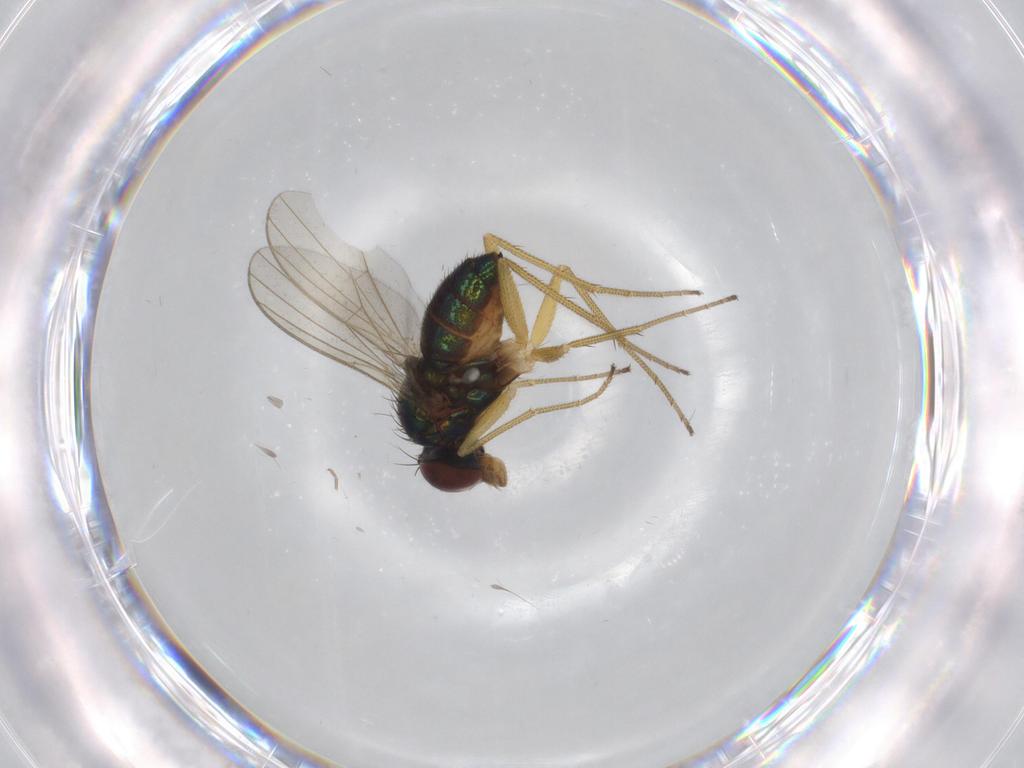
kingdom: Animalia
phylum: Arthropoda
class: Insecta
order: Diptera
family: Dolichopodidae
